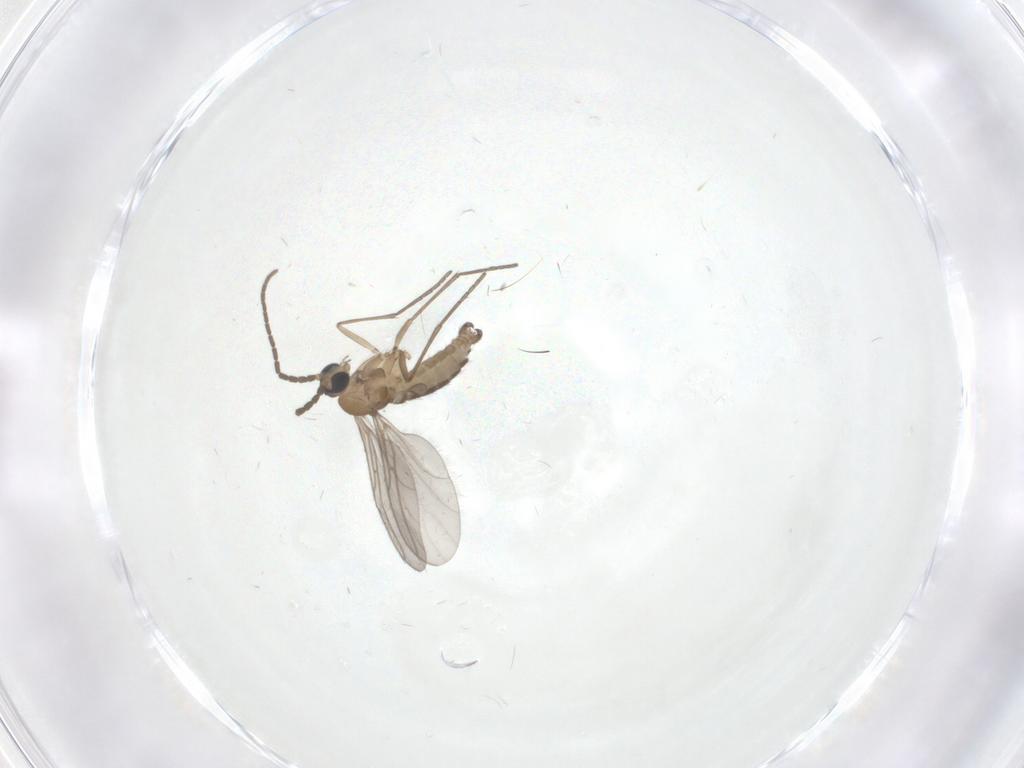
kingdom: Animalia
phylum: Arthropoda
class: Insecta
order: Diptera
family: Sciaridae
